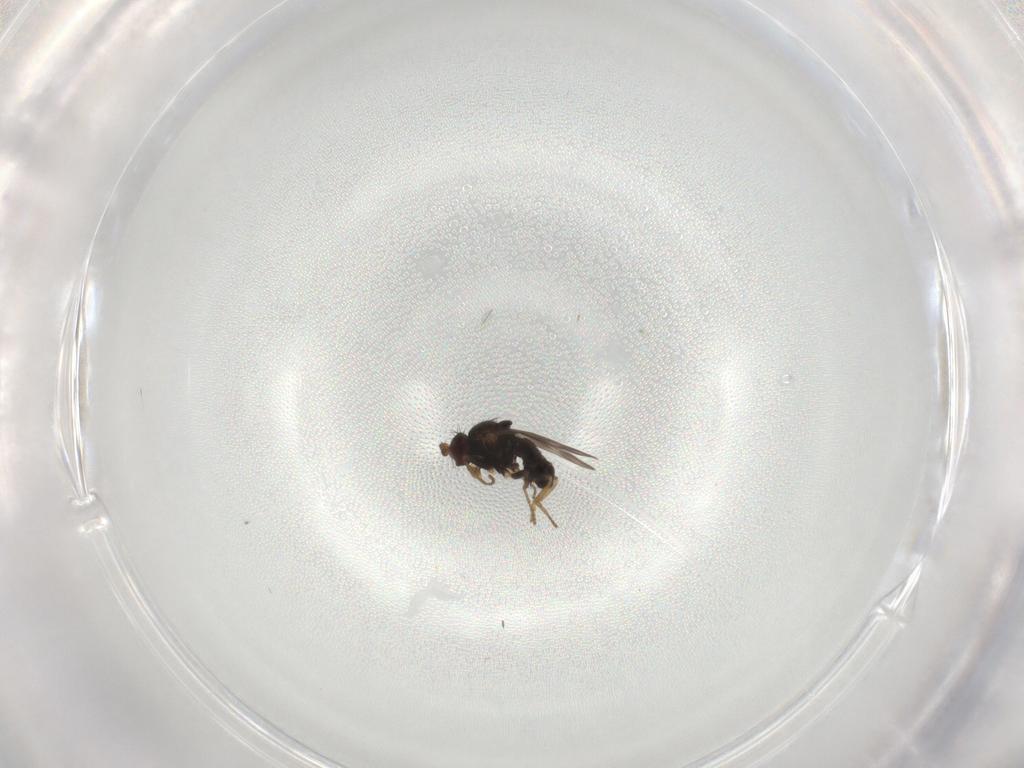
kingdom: Animalia
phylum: Arthropoda
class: Insecta
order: Diptera
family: Sphaeroceridae
